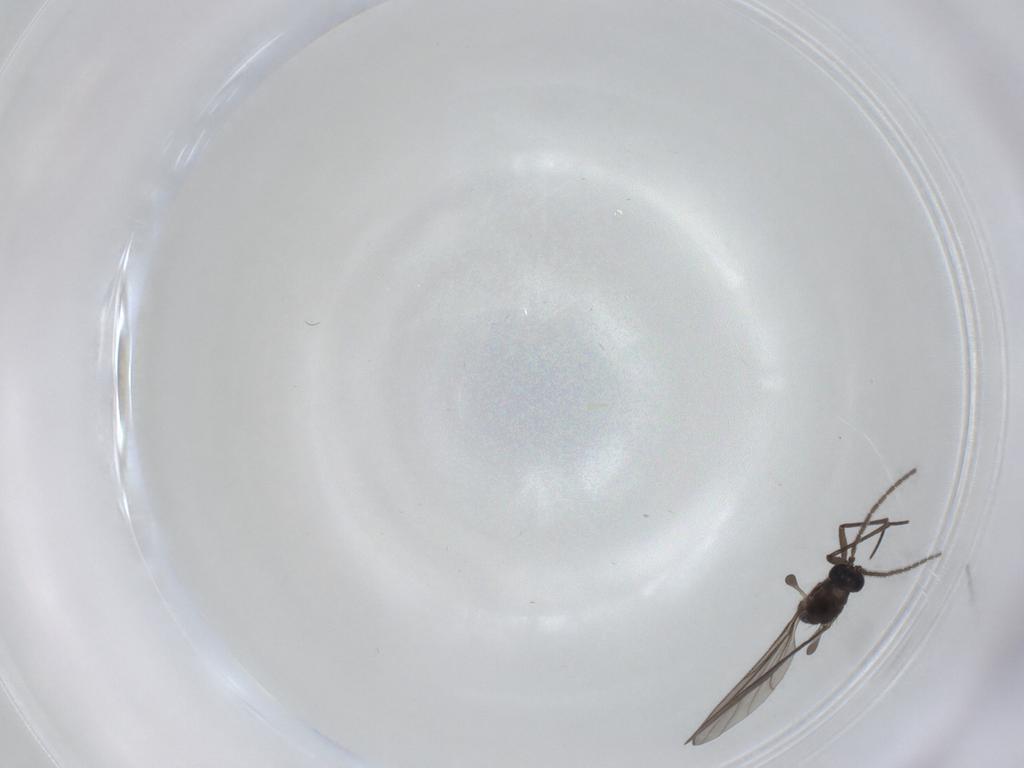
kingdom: Animalia
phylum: Arthropoda
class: Insecta
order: Diptera
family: Sciaridae
